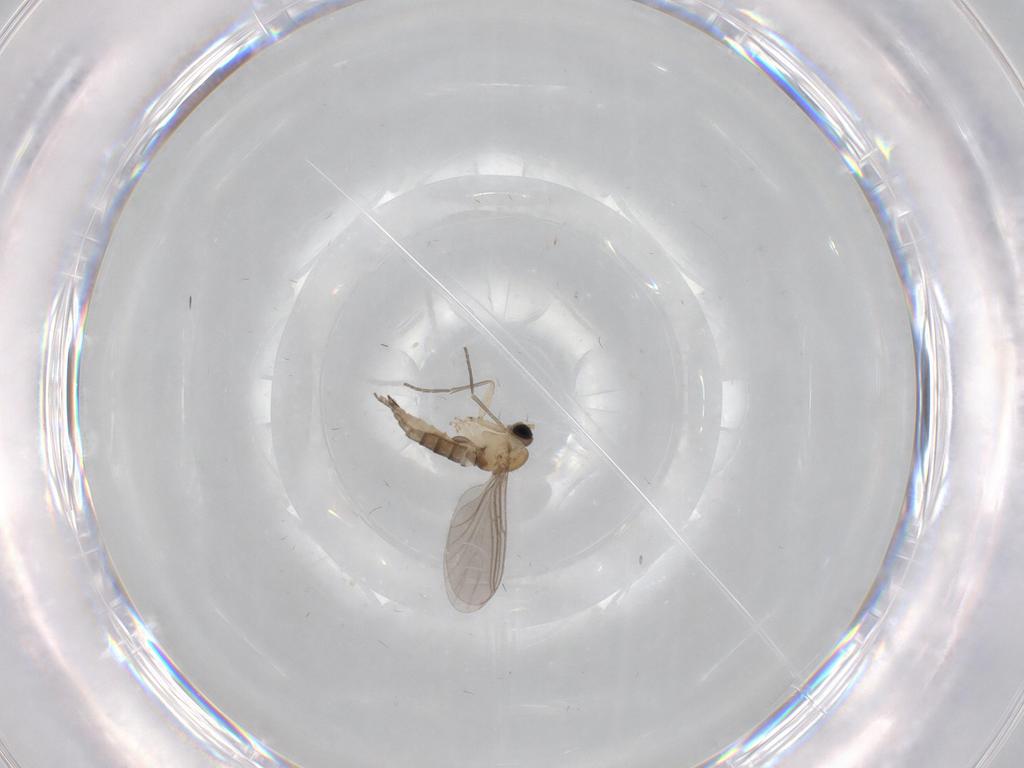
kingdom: Animalia
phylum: Arthropoda
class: Insecta
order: Diptera
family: Sciaridae
